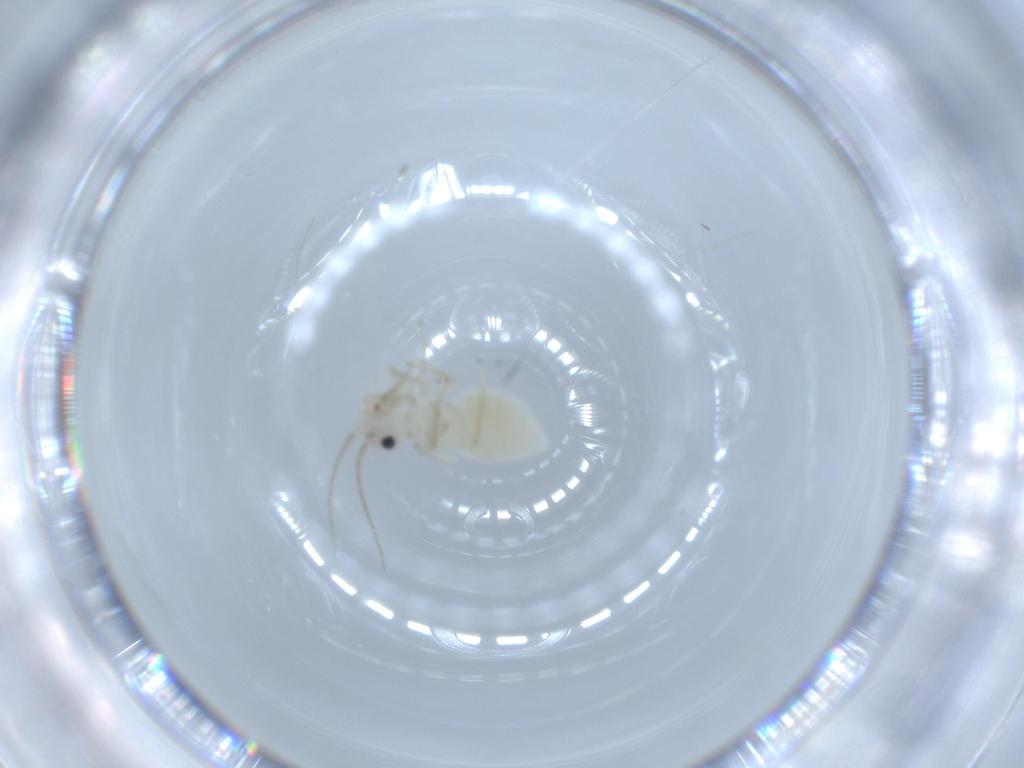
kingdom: Animalia
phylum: Arthropoda
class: Insecta
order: Psocodea
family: Caeciliusidae
